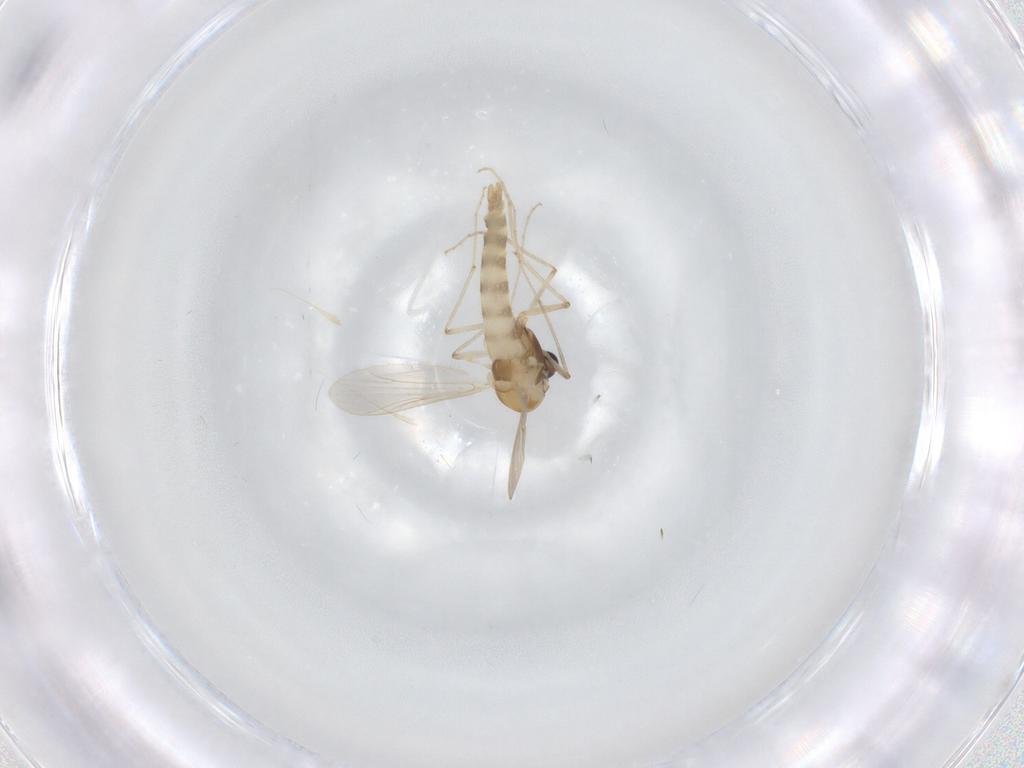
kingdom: Animalia
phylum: Arthropoda
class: Insecta
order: Diptera
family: Chironomidae
